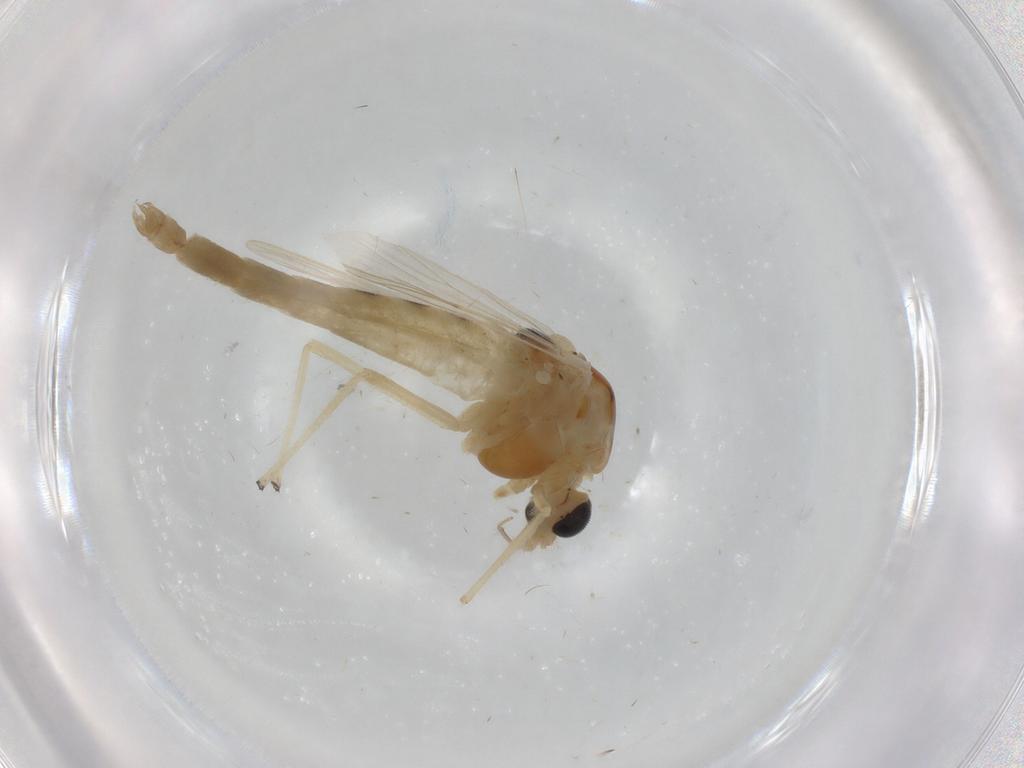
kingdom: Animalia
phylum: Arthropoda
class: Insecta
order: Diptera
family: Chironomidae
